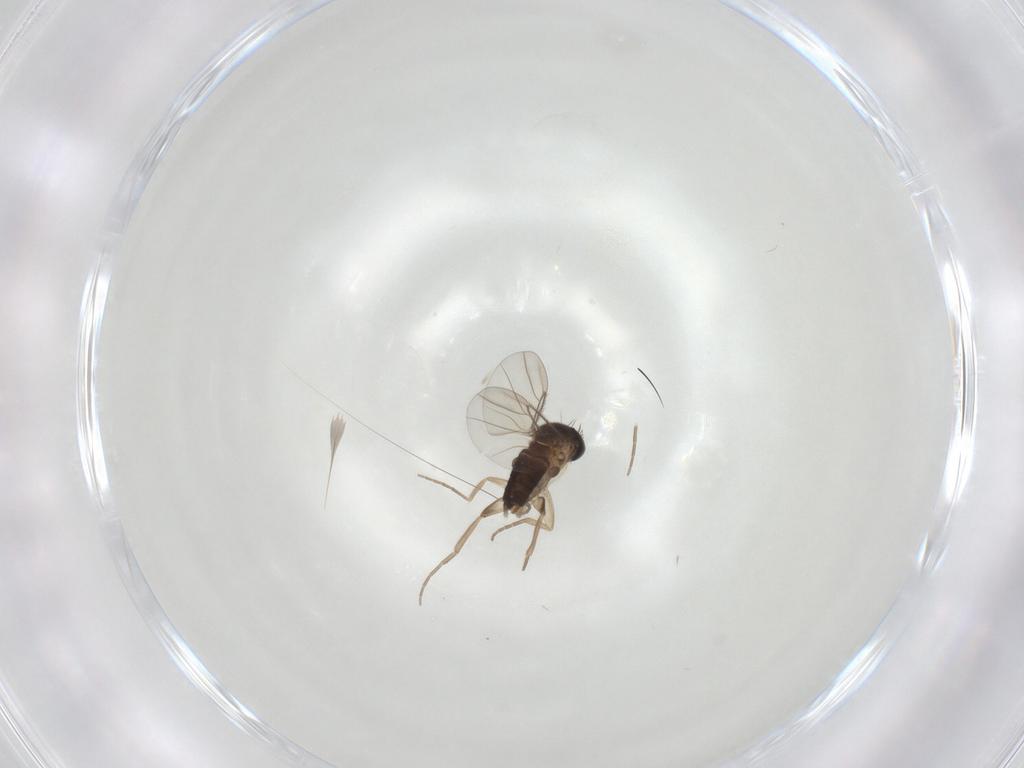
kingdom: Animalia
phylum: Arthropoda
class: Insecta
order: Diptera
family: Phoridae
